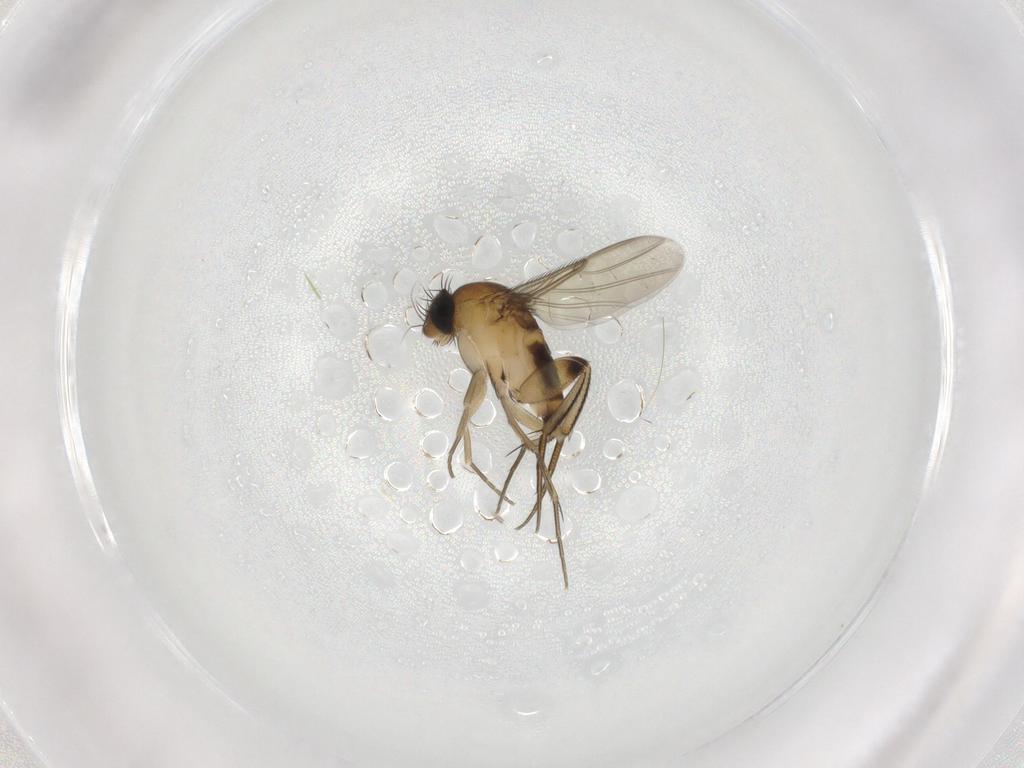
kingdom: Animalia
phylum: Arthropoda
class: Insecta
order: Diptera
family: Phoridae
